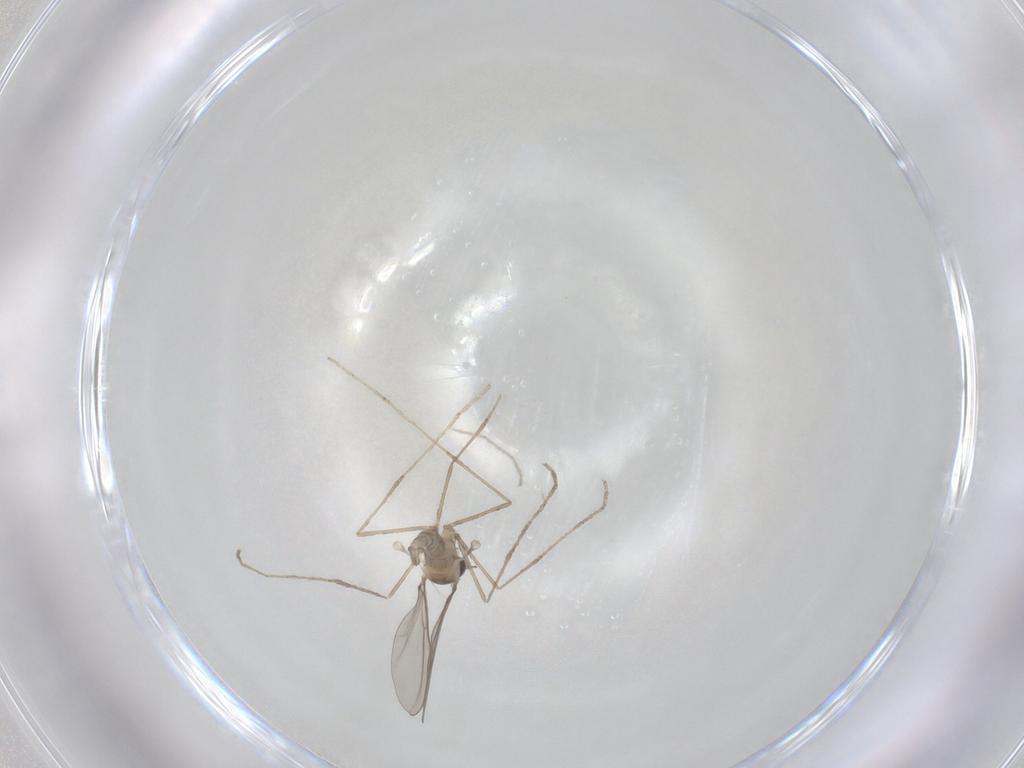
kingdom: Animalia
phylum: Arthropoda
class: Insecta
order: Diptera
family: Cecidomyiidae
